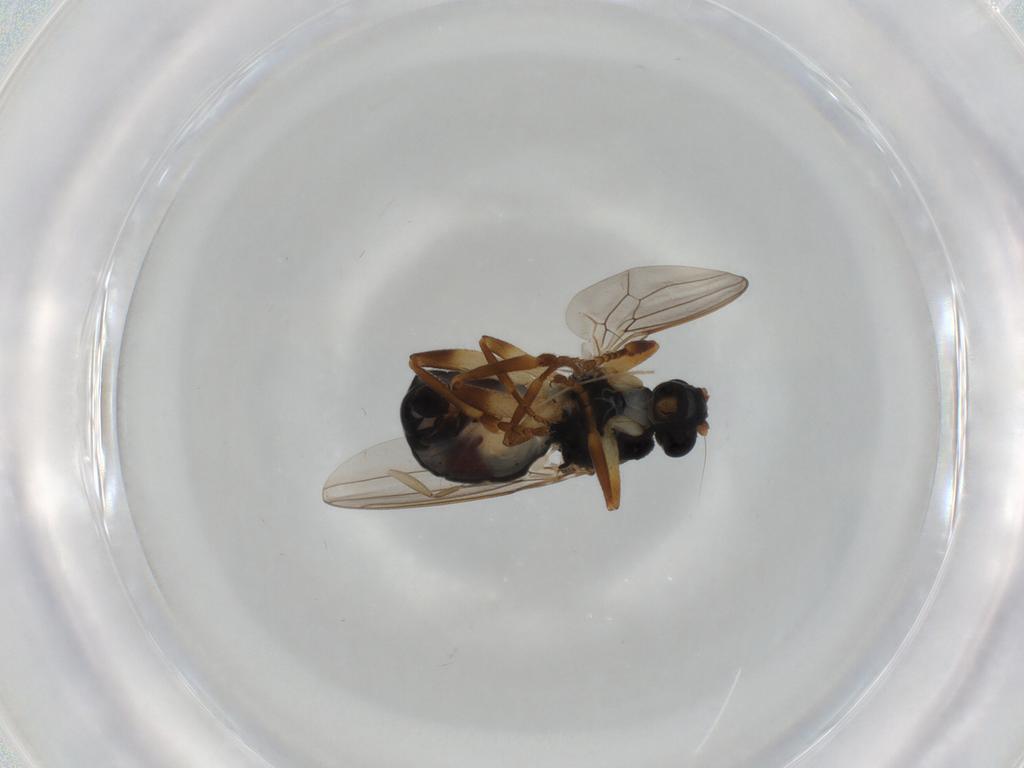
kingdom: Animalia
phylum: Arthropoda
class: Insecta
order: Diptera
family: Sphaeroceridae
